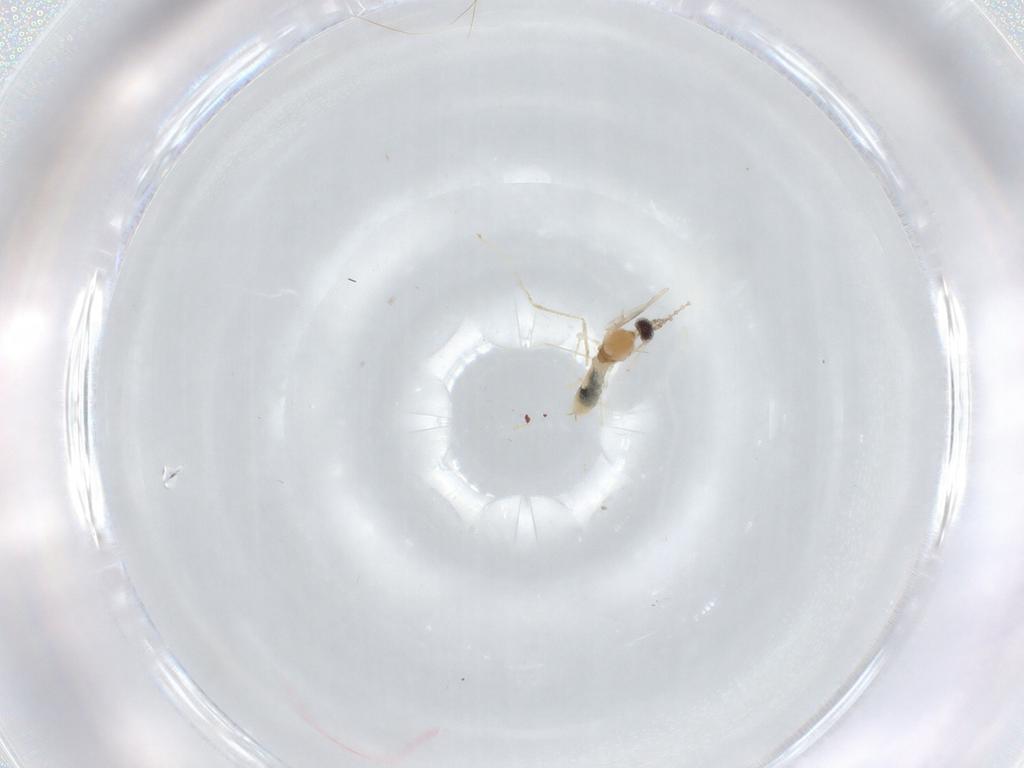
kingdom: Animalia
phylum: Arthropoda
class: Insecta
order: Diptera
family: Cecidomyiidae
